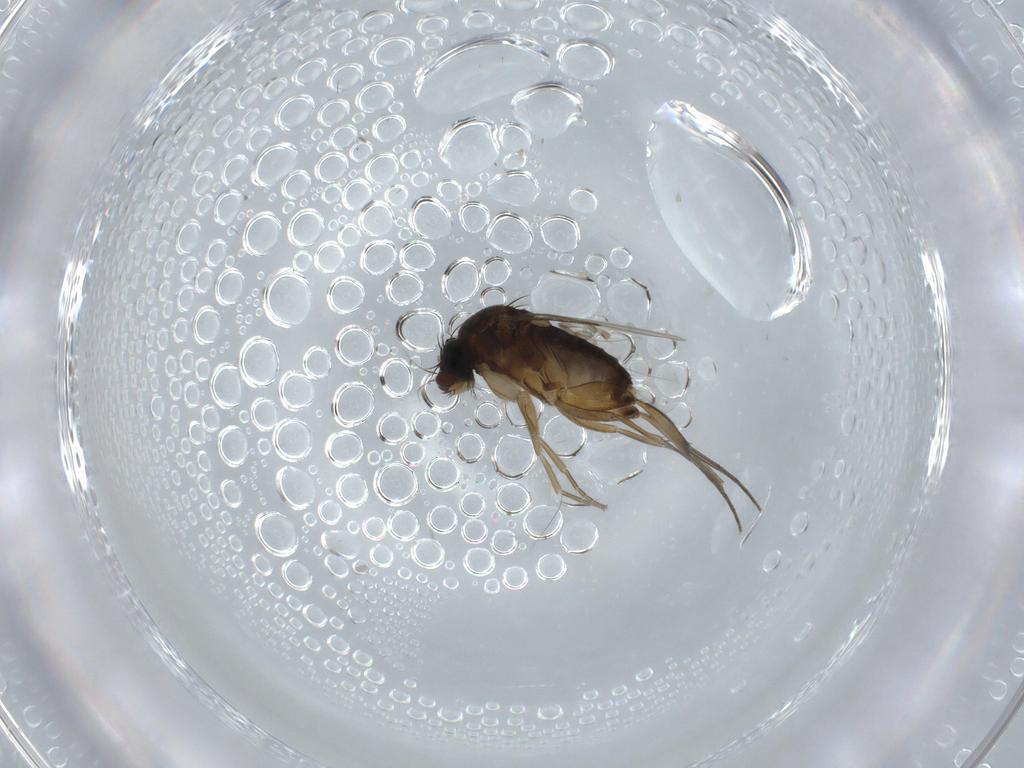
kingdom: Animalia
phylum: Arthropoda
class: Insecta
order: Diptera
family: Phoridae
